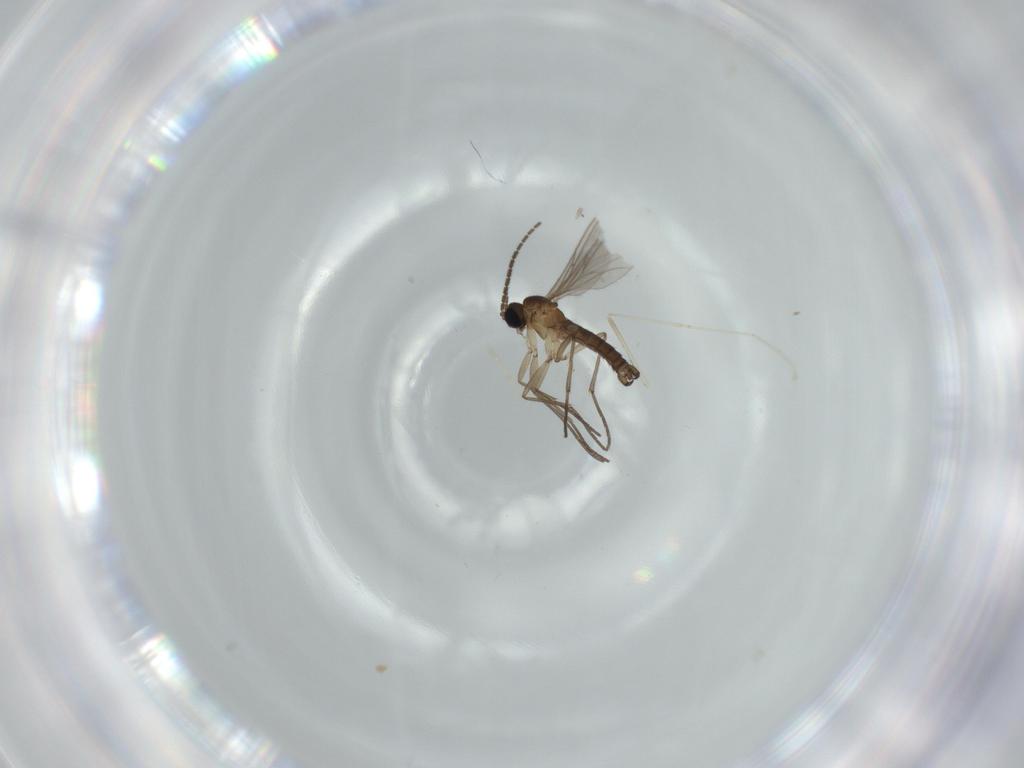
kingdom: Animalia
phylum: Arthropoda
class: Insecta
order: Diptera
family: Sciaridae
